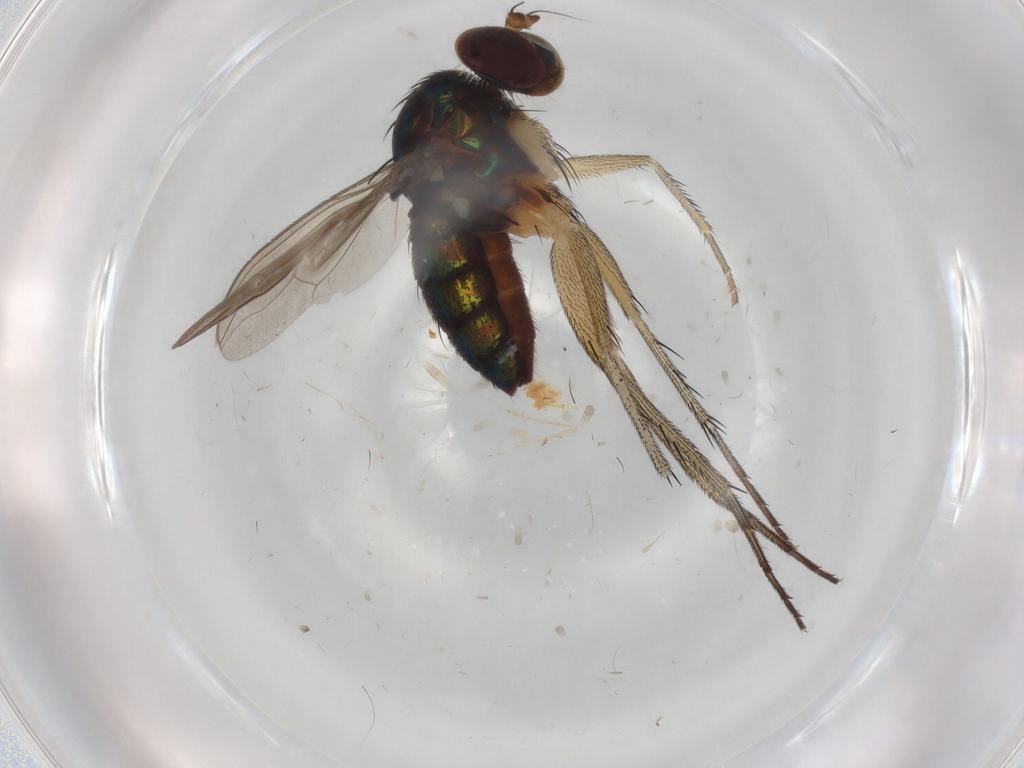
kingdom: Animalia
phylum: Arthropoda
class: Insecta
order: Diptera
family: Dolichopodidae
